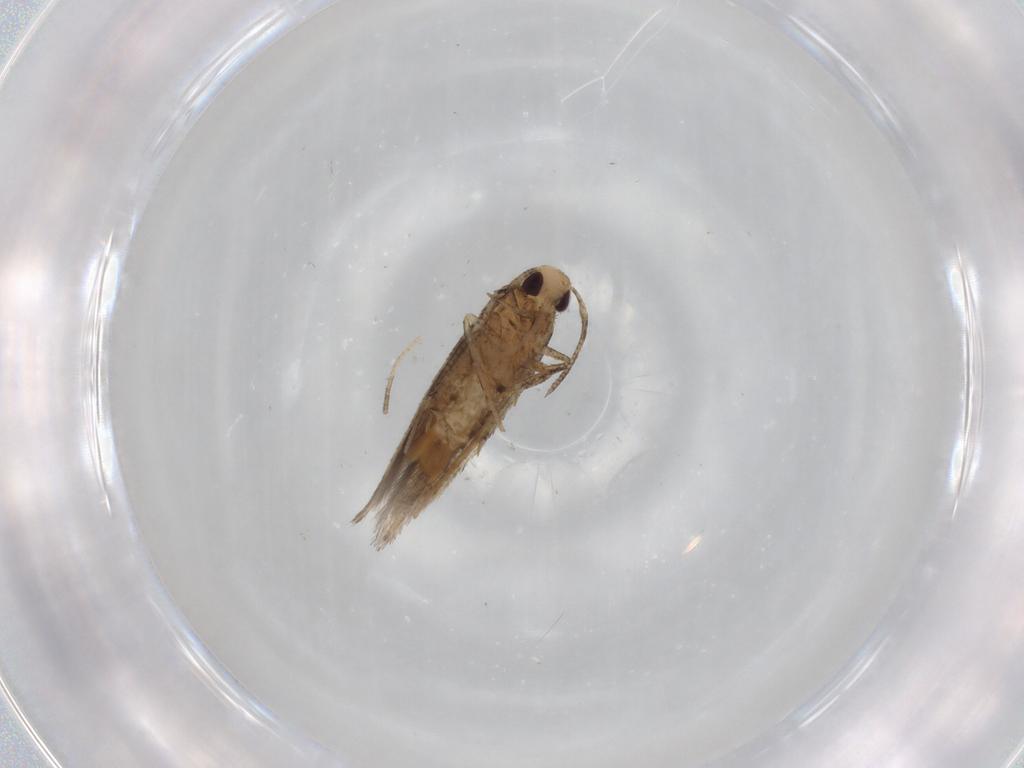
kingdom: Animalia
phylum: Arthropoda
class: Insecta
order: Lepidoptera
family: Cosmopterigidae
